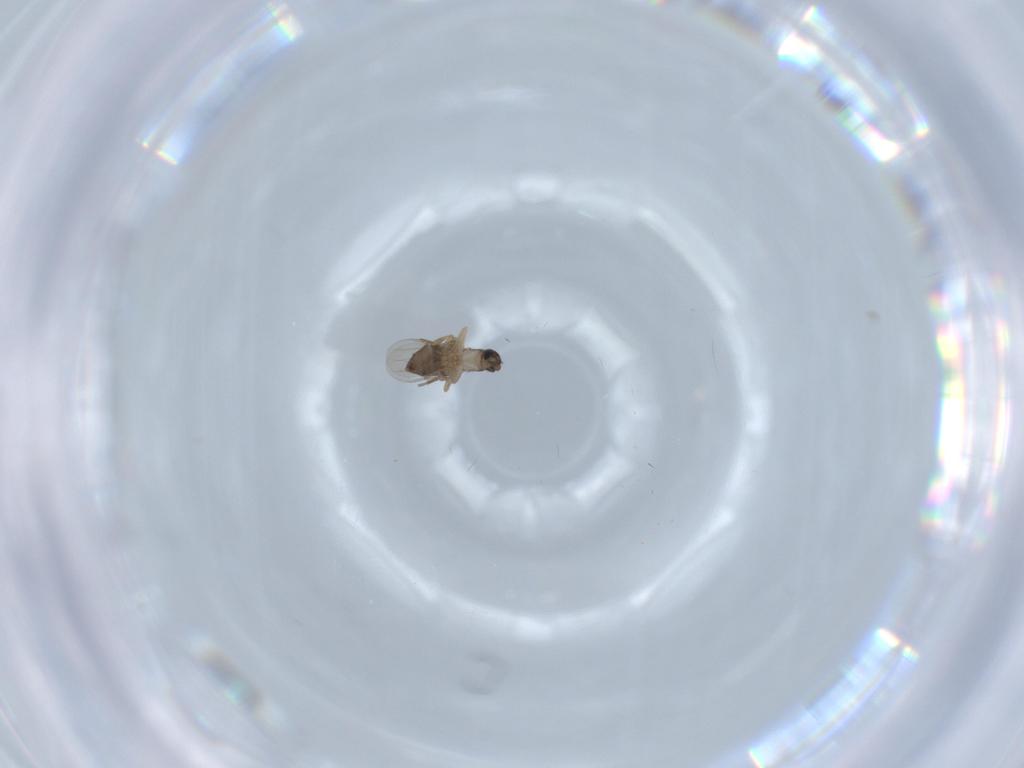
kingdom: Animalia
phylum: Arthropoda
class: Insecta
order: Diptera
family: Phoridae
